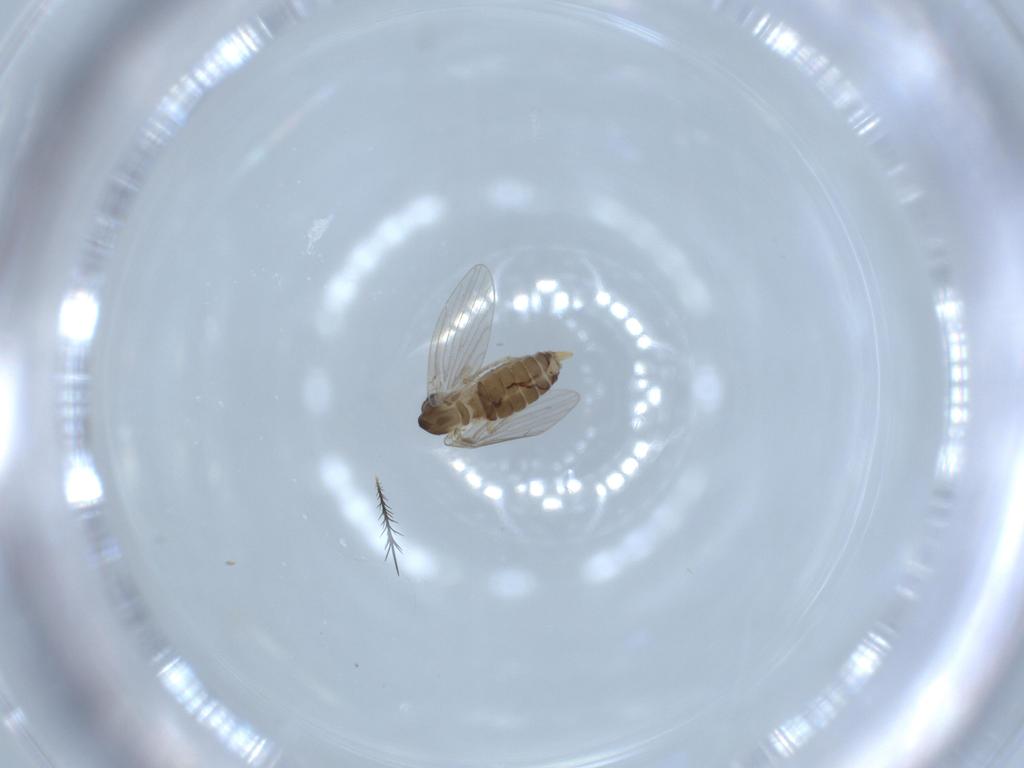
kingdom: Animalia
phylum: Arthropoda
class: Insecta
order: Diptera
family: Psychodidae
